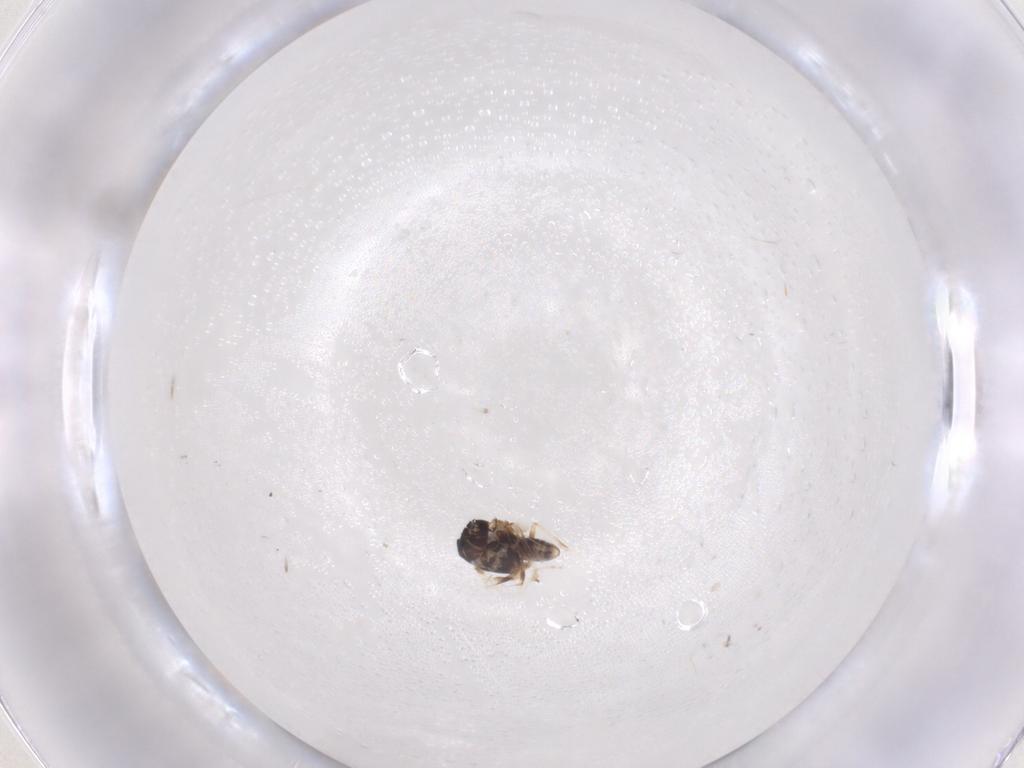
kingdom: Animalia
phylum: Arthropoda
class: Insecta
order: Diptera
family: Bombyliidae
